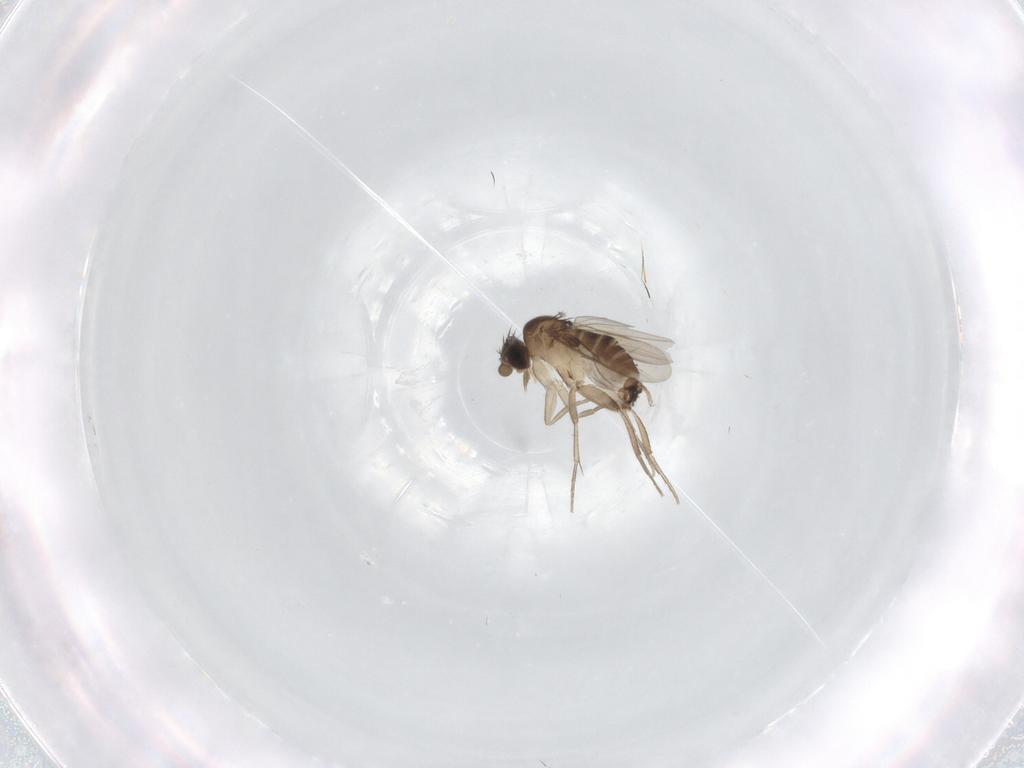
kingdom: Animalia
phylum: Arthropoda
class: Insecta
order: Diptera
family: Phoridae
